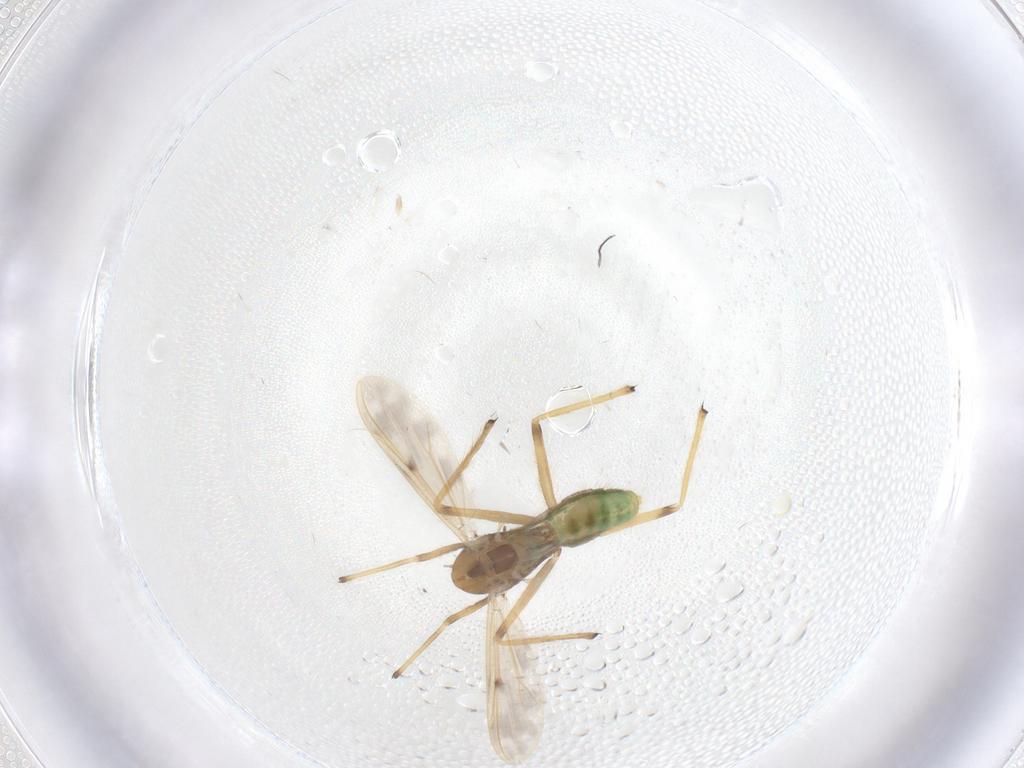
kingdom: Animalia
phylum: Arthropoda
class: Insecta
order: Diptera
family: Chironomidae
